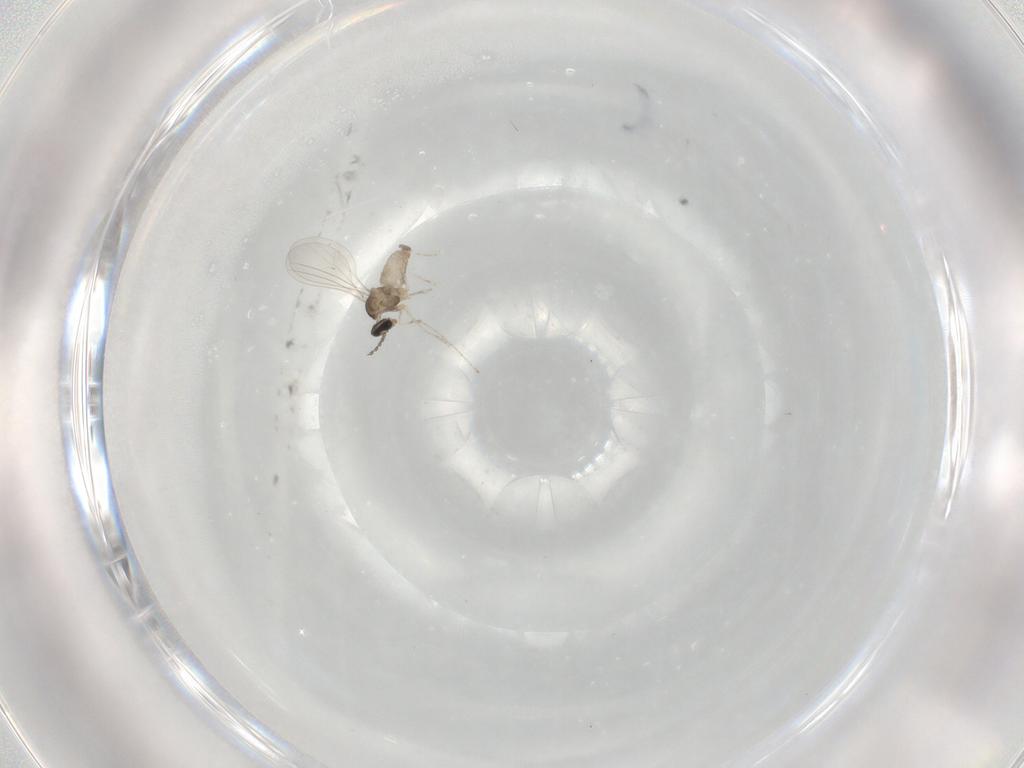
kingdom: Animalia
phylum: Arthropoda
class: Insecta
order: Diptera
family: Cecidomyiidae
